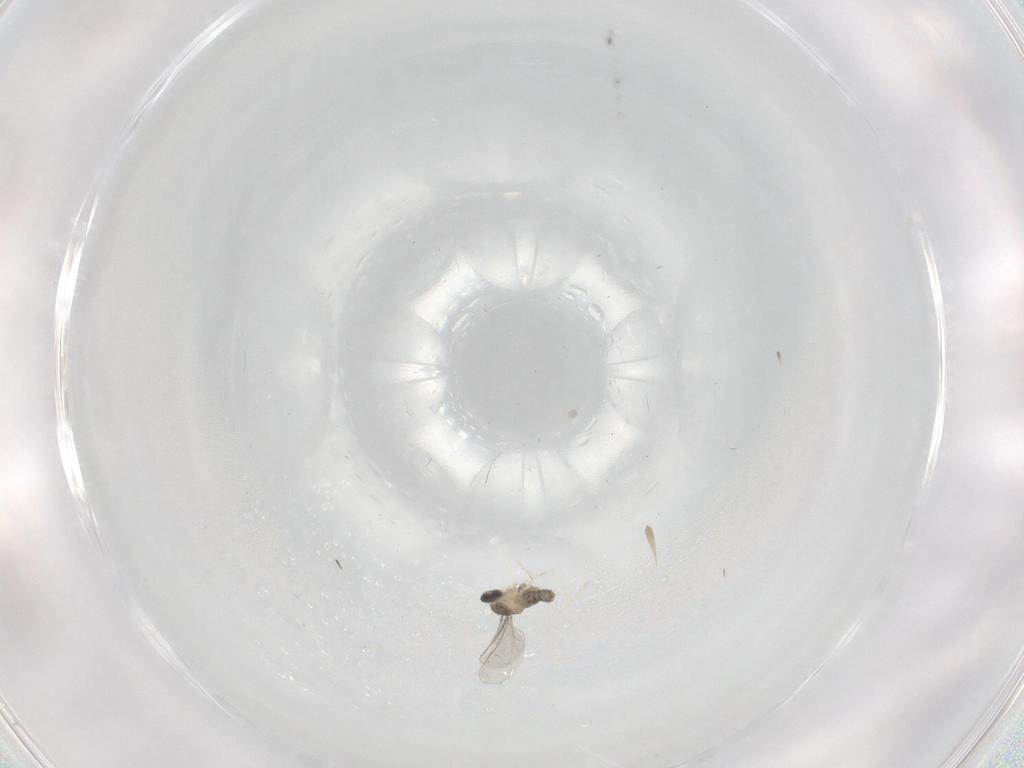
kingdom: Animalia
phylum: Arthropoda
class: Insecta
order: Diptera
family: Cecidomyiidae
